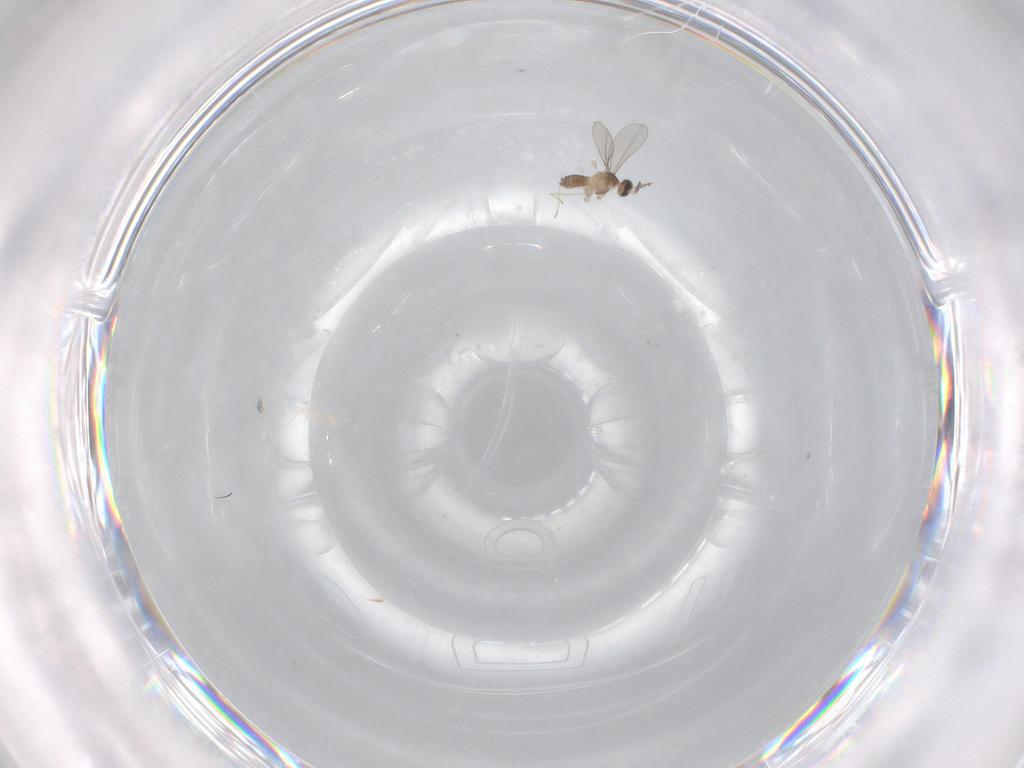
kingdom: Animalia
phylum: Arthropoda
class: Insecta
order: Diptera
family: Cecidomyiidae
